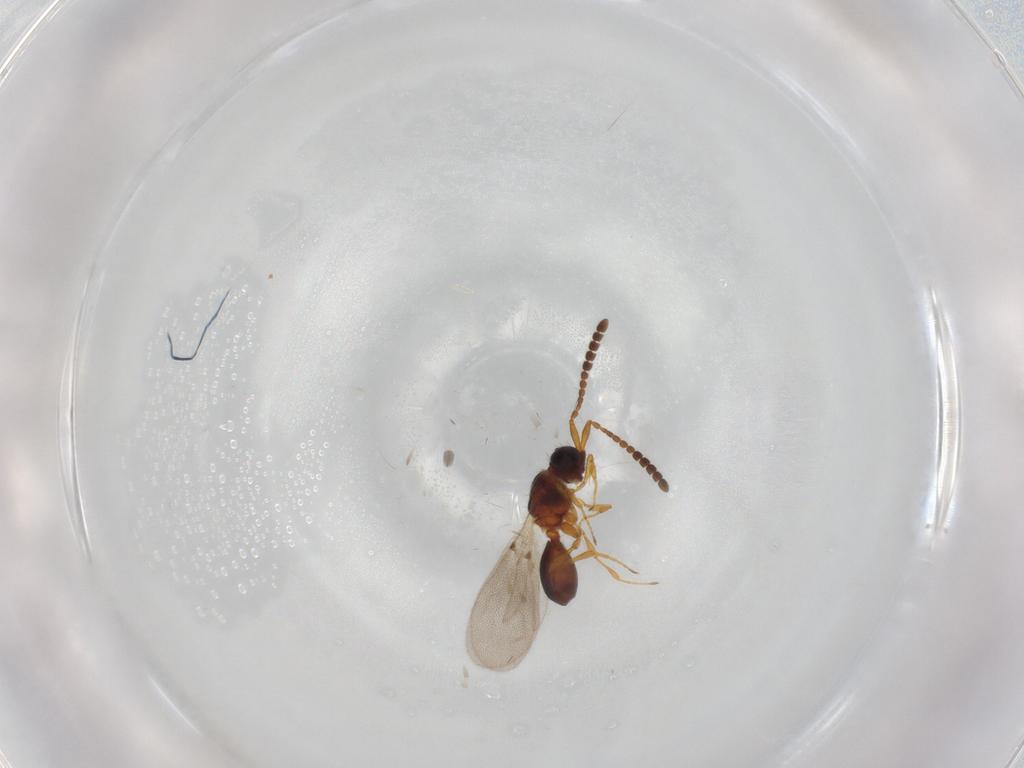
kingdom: Animalia
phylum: Arthropoda
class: Insecta
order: Hymenoptera
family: Diapriidae
